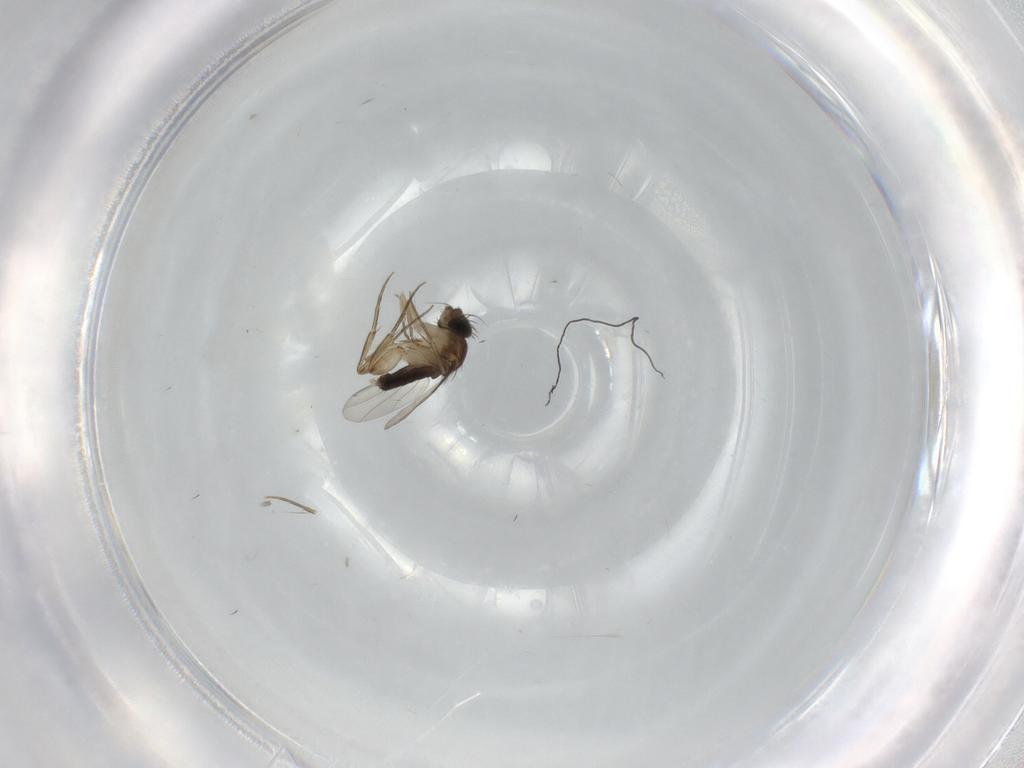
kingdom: Animalia
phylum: Arthropoda
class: Insecta
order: Diptera
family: Phoridae
